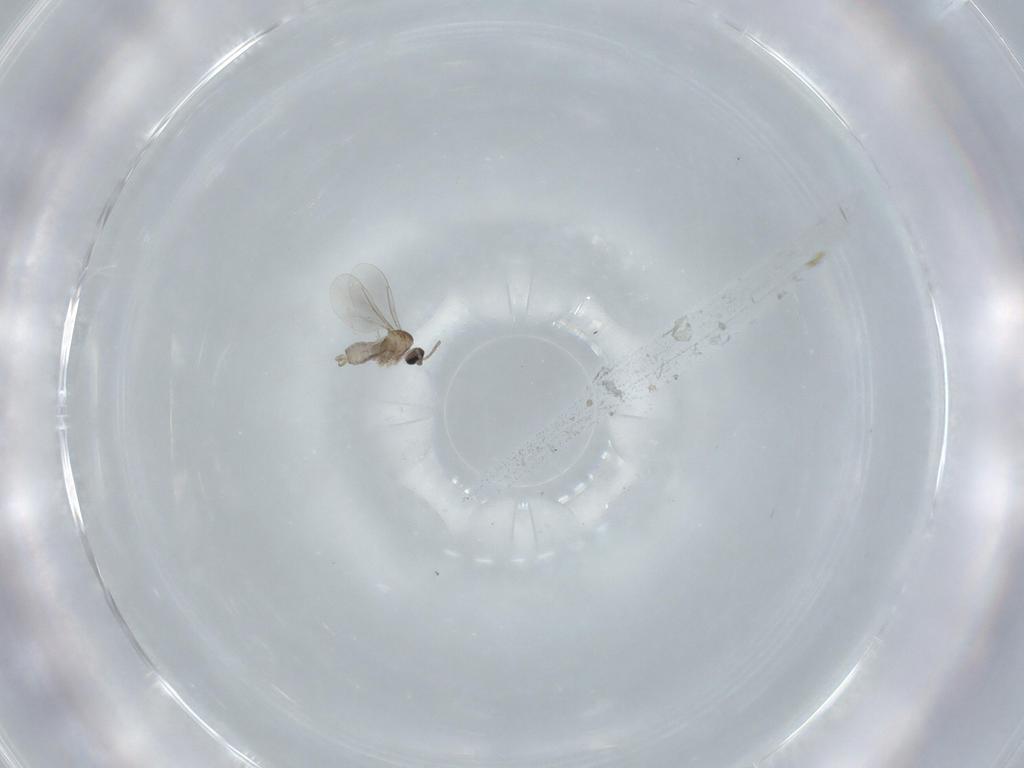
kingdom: Animalia
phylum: Arthropoda
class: Insecta
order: Diptera
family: Cecidomyiidae
